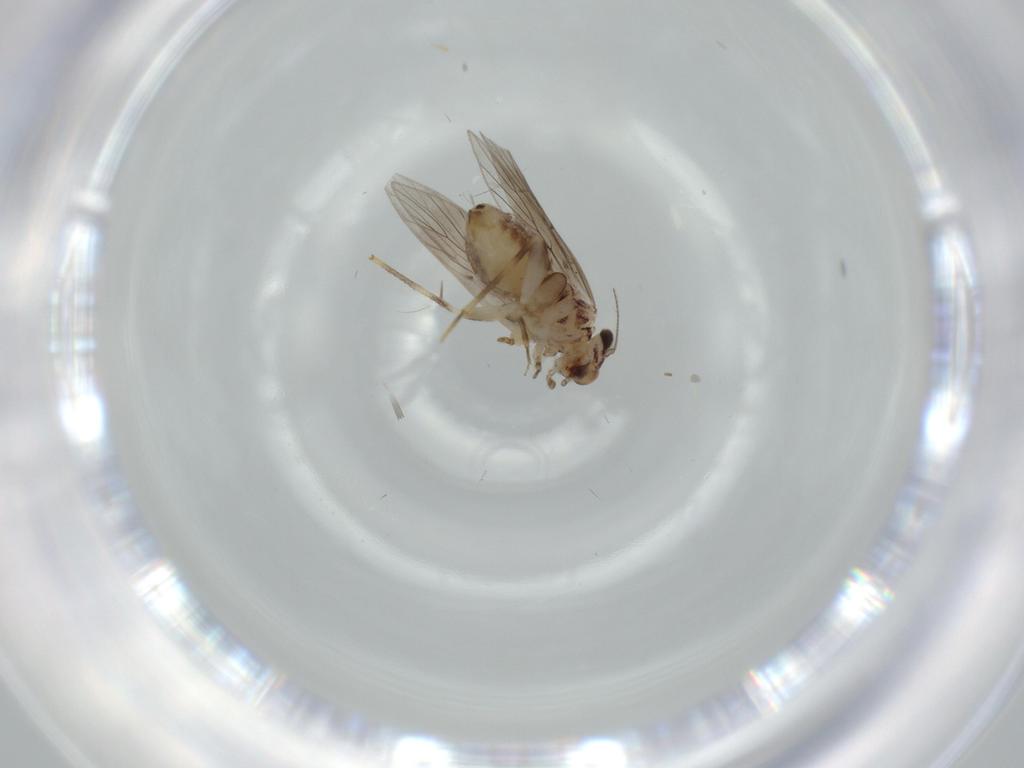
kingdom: Animalia
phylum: Arthropoda
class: Insecta
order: Psocodea
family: Lepidopsocidae
